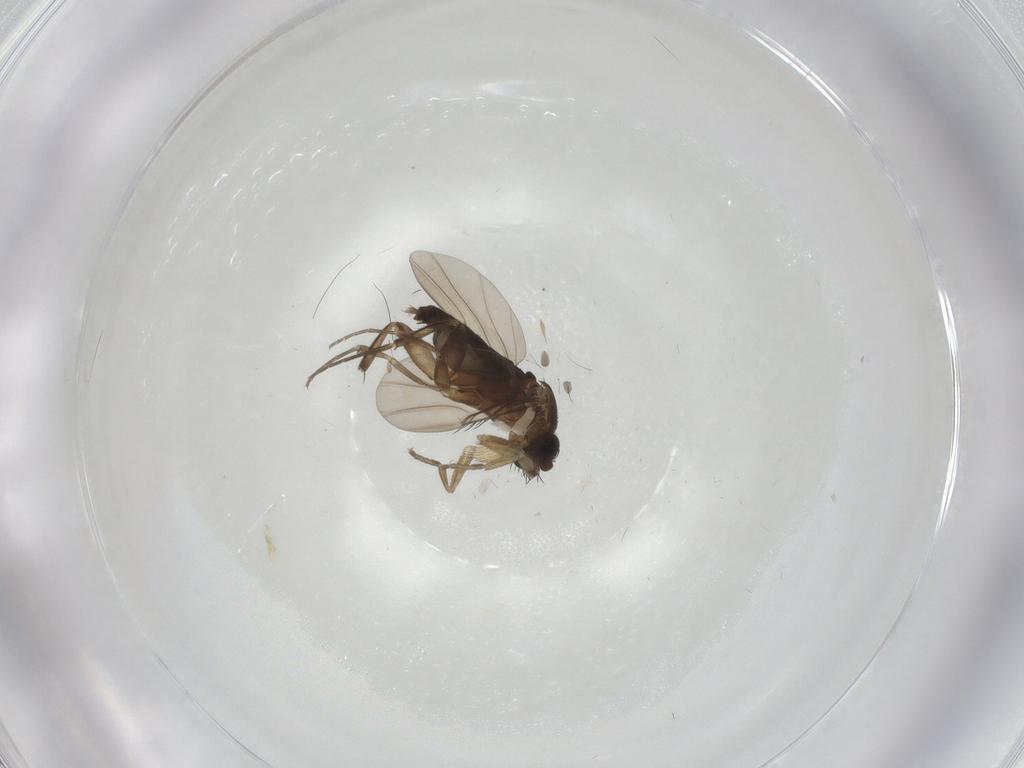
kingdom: Animalia
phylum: Arthropoda
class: Insecta
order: Diptera
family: Phoridae
